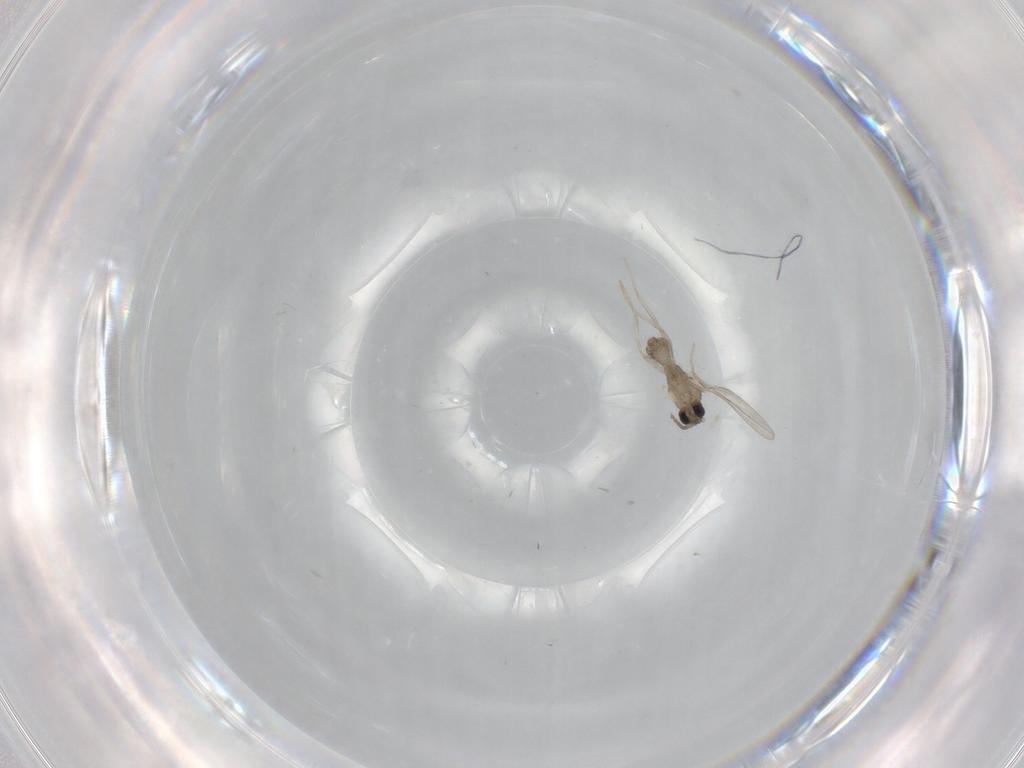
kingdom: Animalia
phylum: Arthropoda
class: Insecta
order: Diptera
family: Cecidomyiidae
